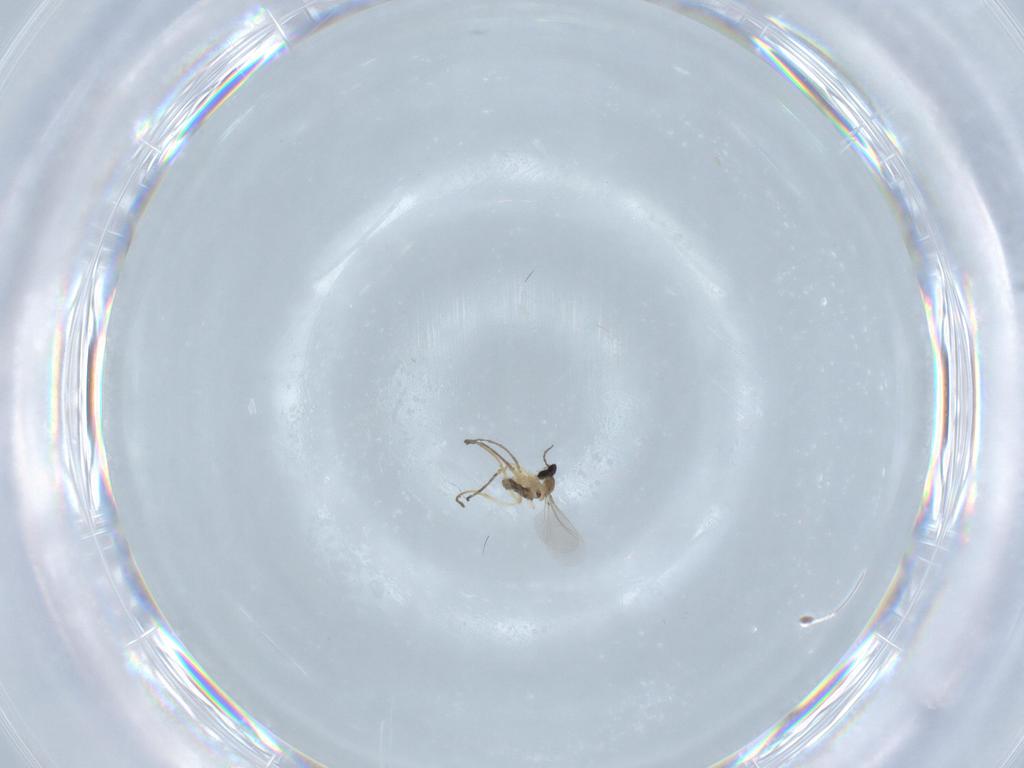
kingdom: Animalia
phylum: Arthropoda
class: Insecta
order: Diptera
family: Cecidomyiidae
